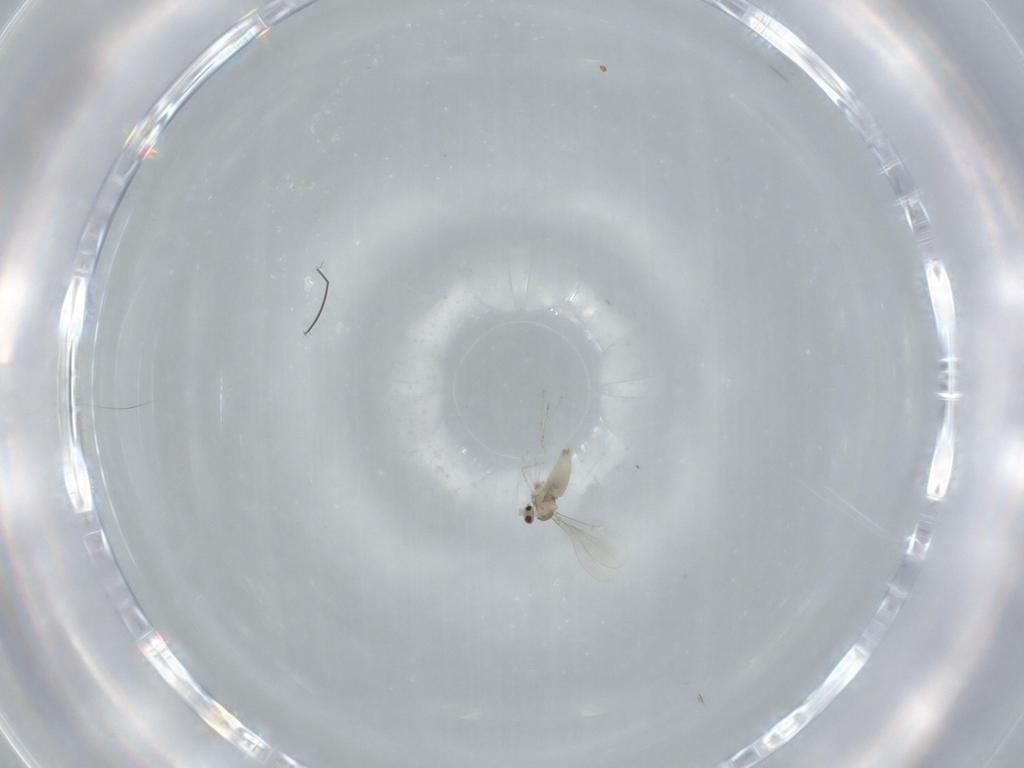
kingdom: Animalia
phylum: Arthropoda
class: Insecta
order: Diptera
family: Cecidomyiidae
